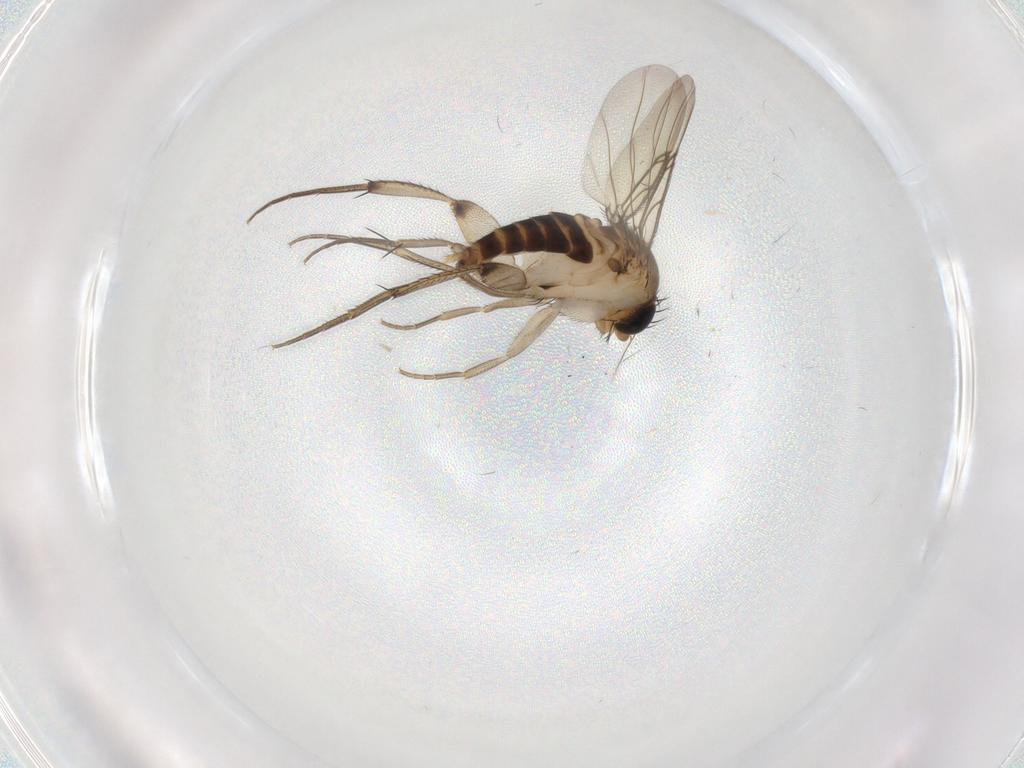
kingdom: Animalia
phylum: Arthropoda
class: Insecta
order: Diptera
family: Phoridae
